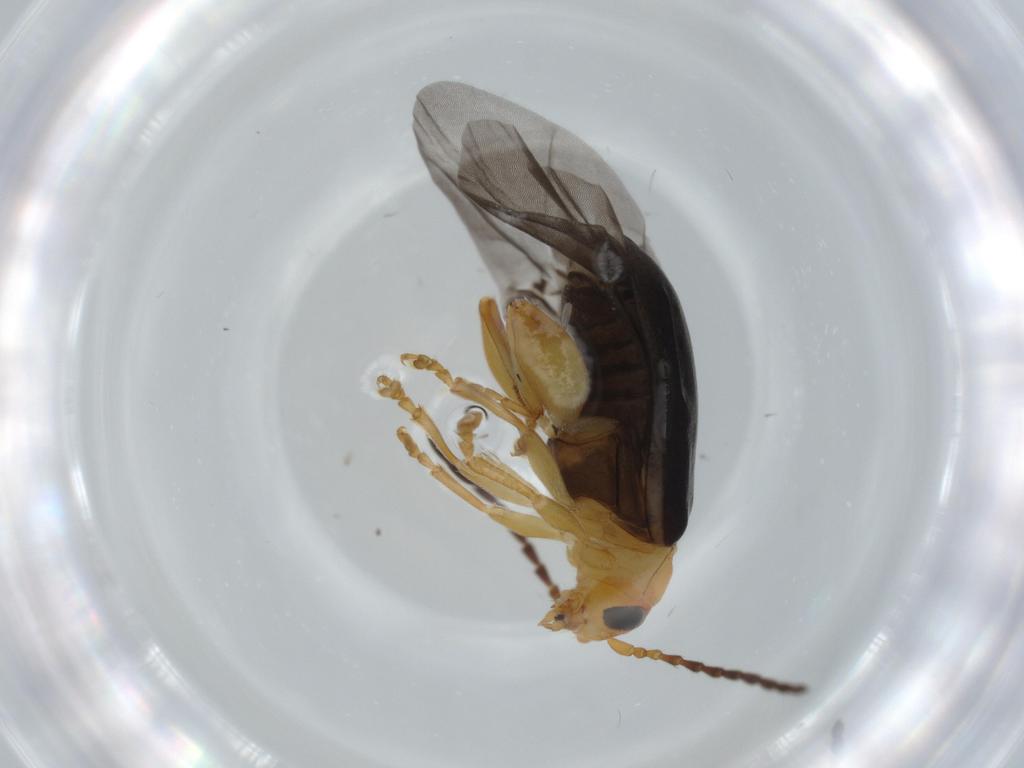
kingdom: Animalia
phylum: Arthropoda
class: Insecta
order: Coleoptera
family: Chrysomelidae
